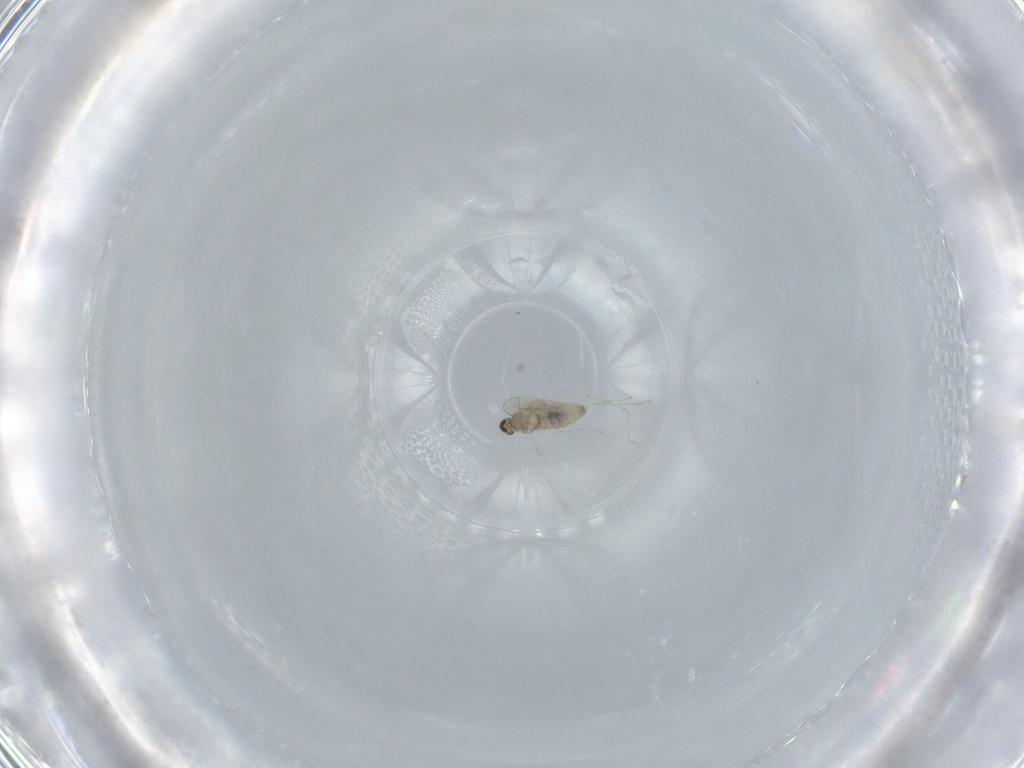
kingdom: Animalia
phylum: Arthropoda
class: Insecta
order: Diptera
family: Cecidomyiidae
